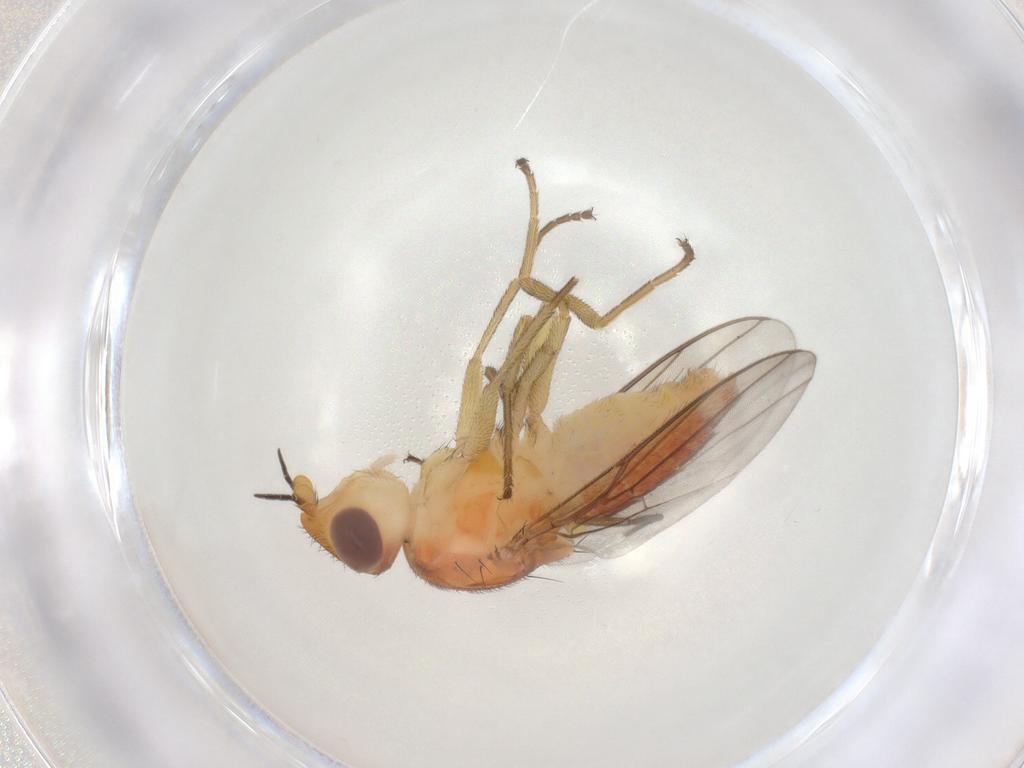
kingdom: Animalia
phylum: Arthropoda
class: Insecta
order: Diptera
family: Chloropidae
